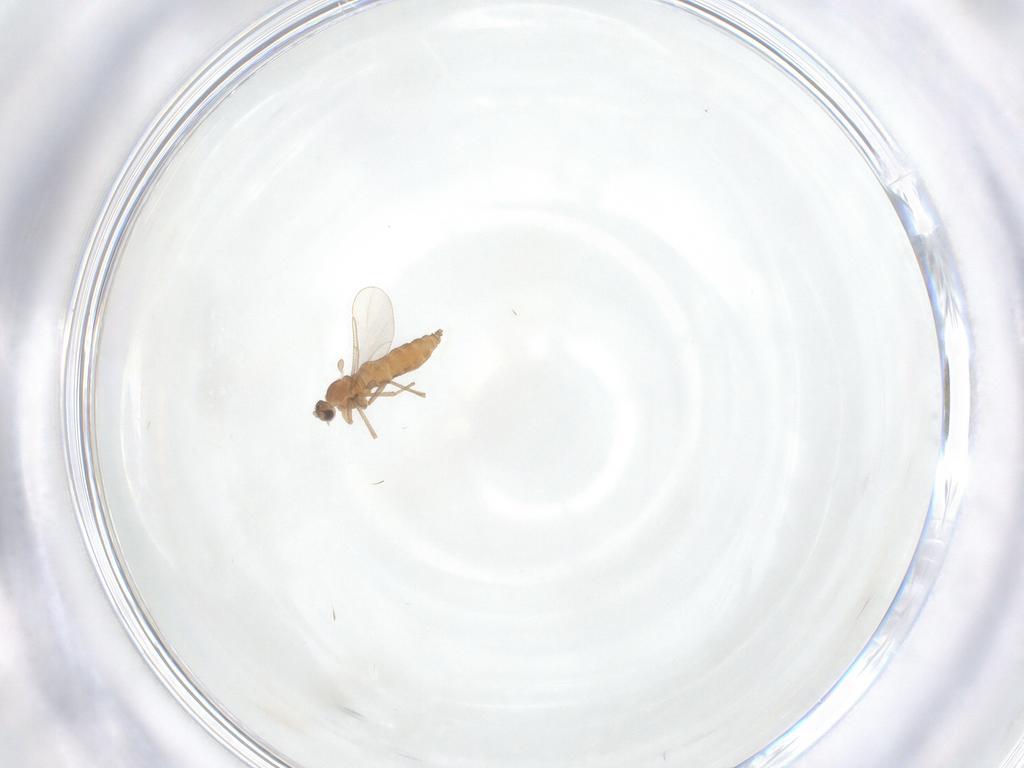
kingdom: Animalia
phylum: Arthropoda
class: Insecta
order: Diptera
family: Cecidomyiidae
